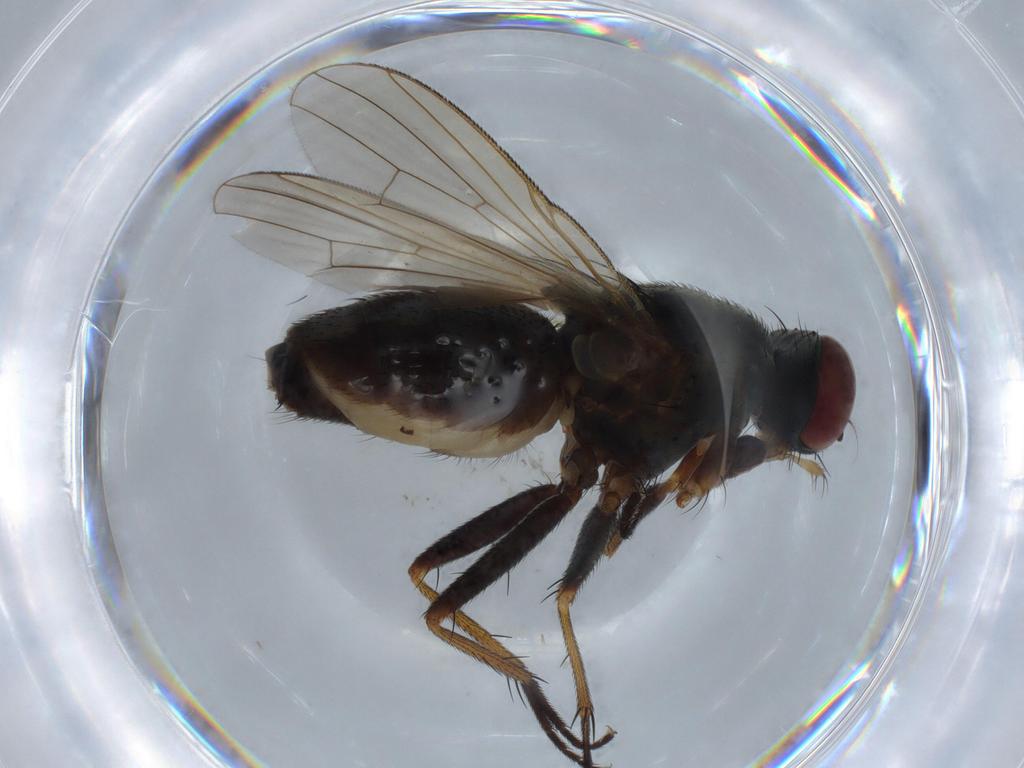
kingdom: Animalia
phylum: Arthropoda
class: Insecta
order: Diptera
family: Muscidae
